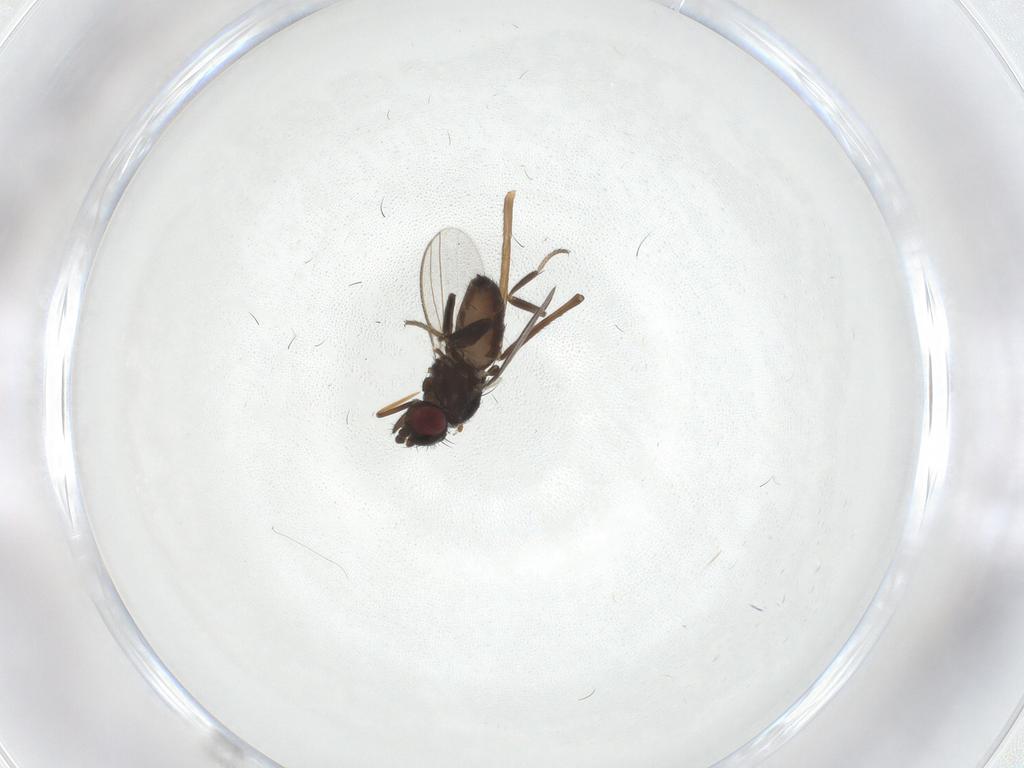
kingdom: Animalia
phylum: Arthropoda
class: Insecta
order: Diptera
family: Milichiidae
